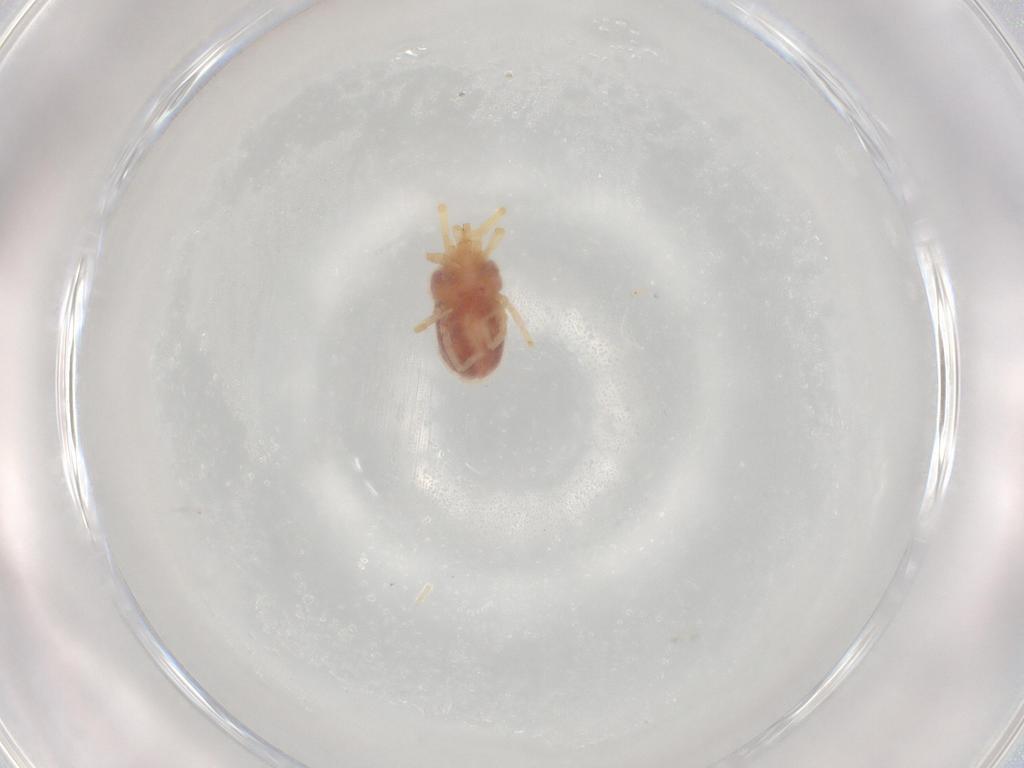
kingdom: Animalia
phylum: Arthropoda
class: Arachnida
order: Trombidiformes
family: Erythraeidae
